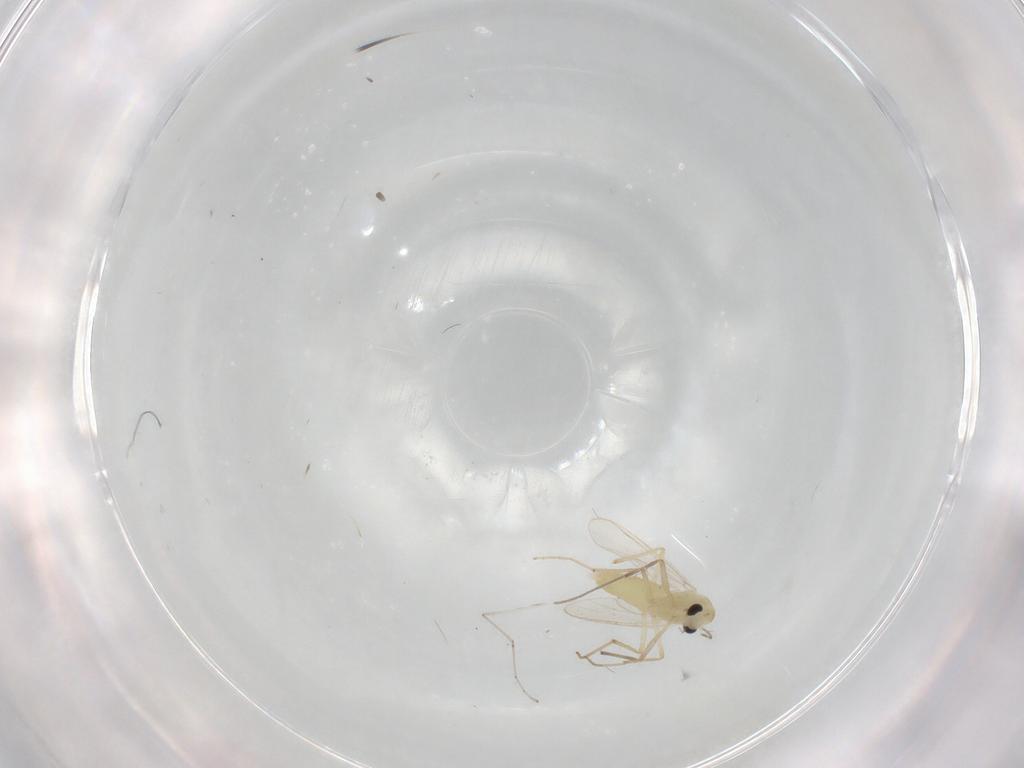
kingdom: Animalia
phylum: Arthropoda
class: Insecta
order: Diptera
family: Chironomidae
